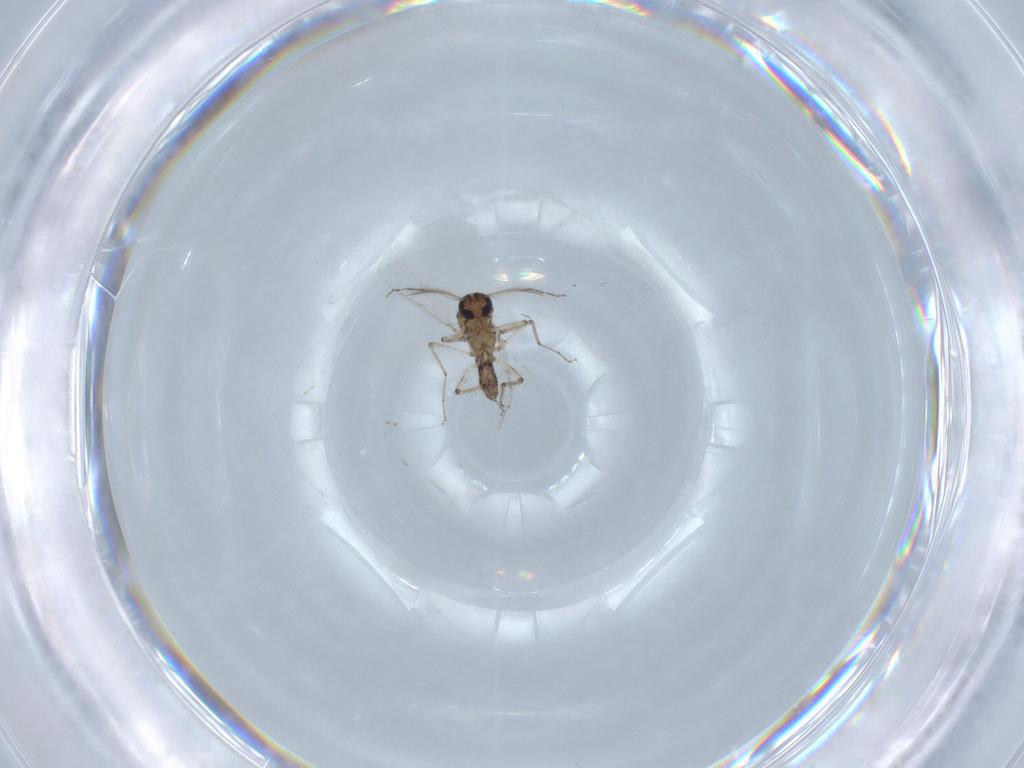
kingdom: Animalia
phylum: Arthropoda
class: Insecta
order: Diptera
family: Ceratopogonidae
